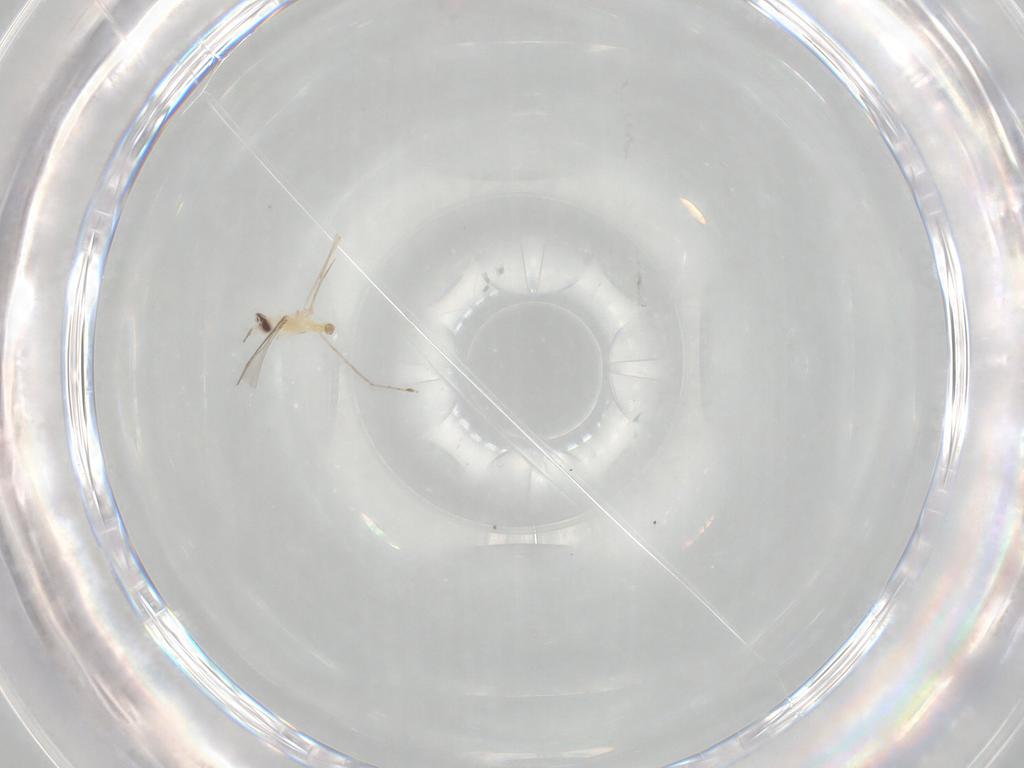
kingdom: Animalia
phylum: Arthropoda
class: Insecta
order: Diptera
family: Cecidomyiidae
